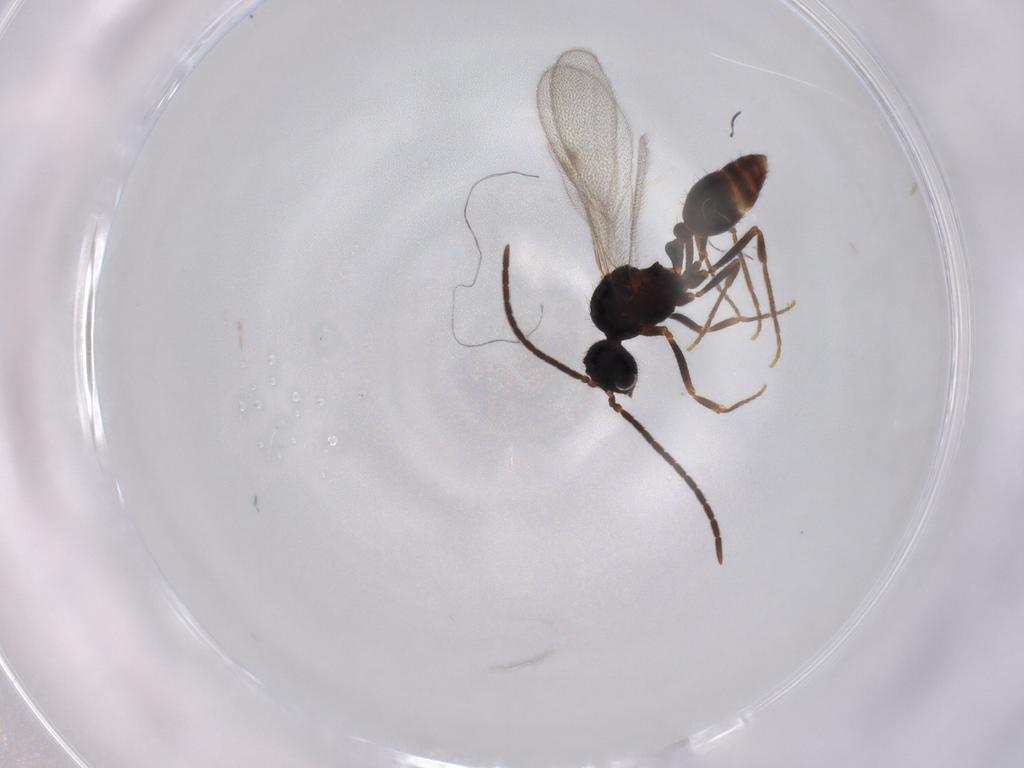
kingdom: Animalia
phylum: Arthropoda
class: Insecta
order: Hymenoptera
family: Formicidae
